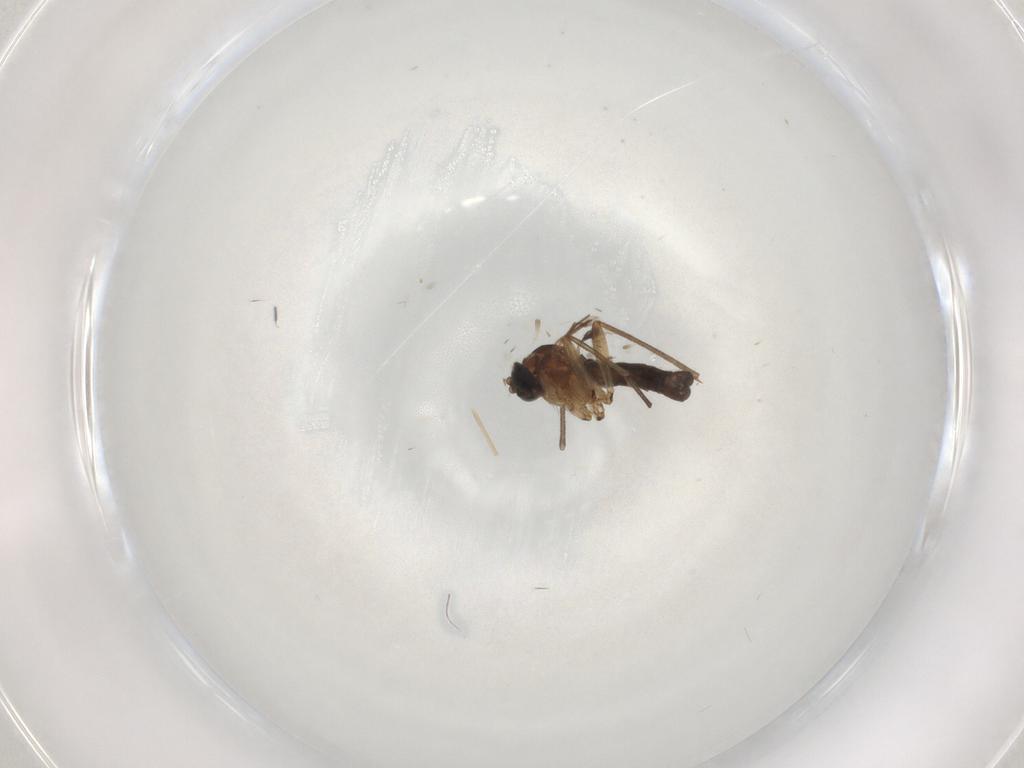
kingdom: Animalia
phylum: Arthropoda
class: Insecta
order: Diptera
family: Sciaridae
